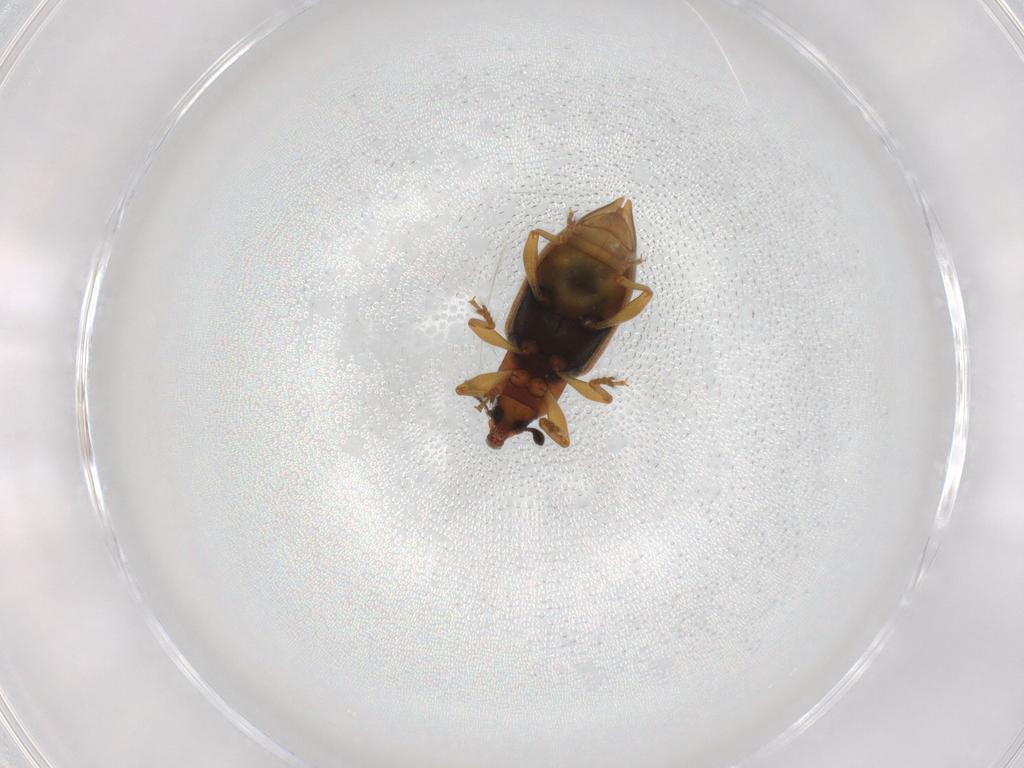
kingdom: Animalia
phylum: Arthropoda
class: Insecta
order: Coleoptera
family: Curculionidae
